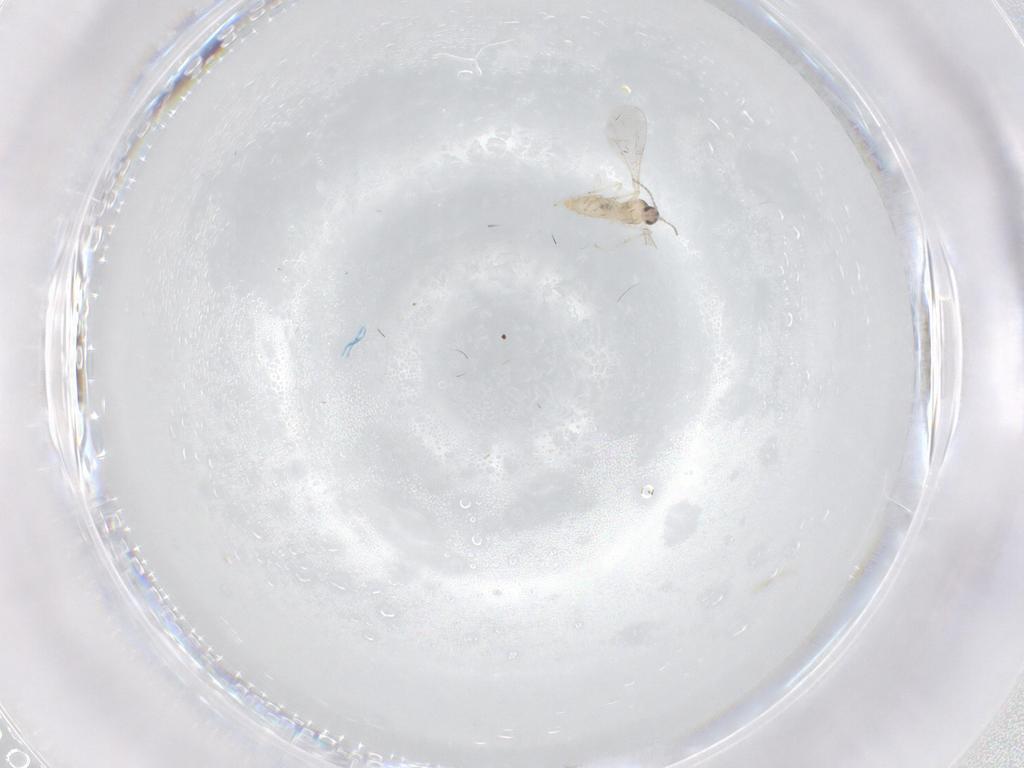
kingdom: Animalia
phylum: Arthropoda
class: Insecta
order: Diptera
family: Cecidomyiidae
